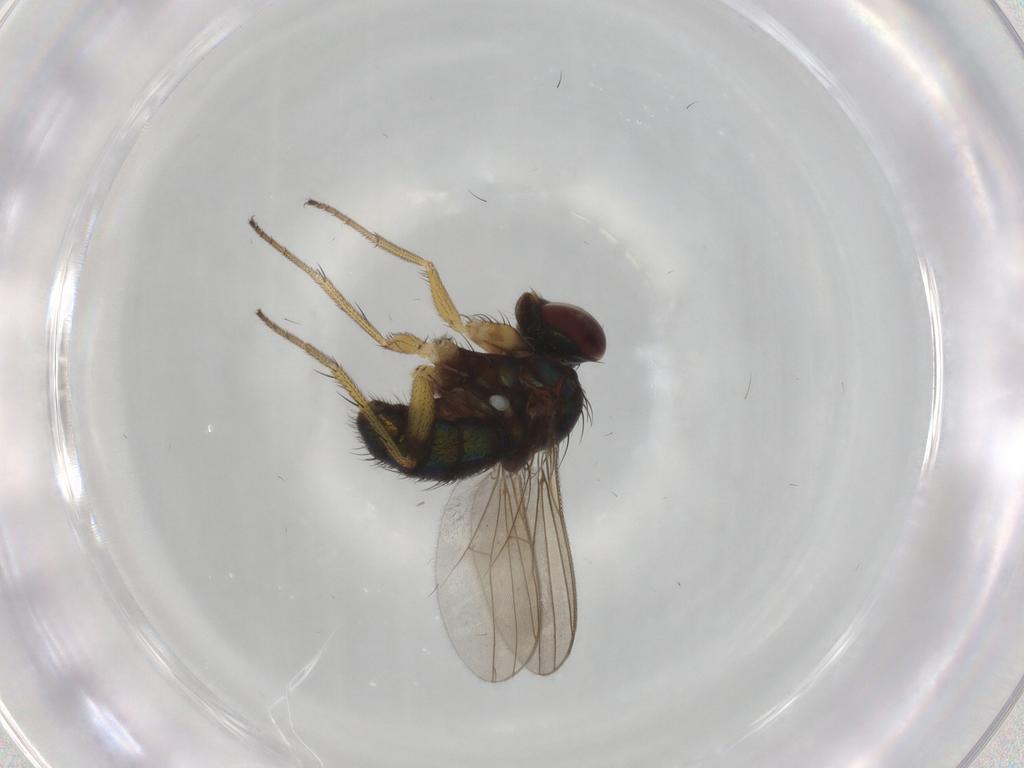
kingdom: Animalia
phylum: Arthropoda
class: Insecta
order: Diptera
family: Dolichopodidae
